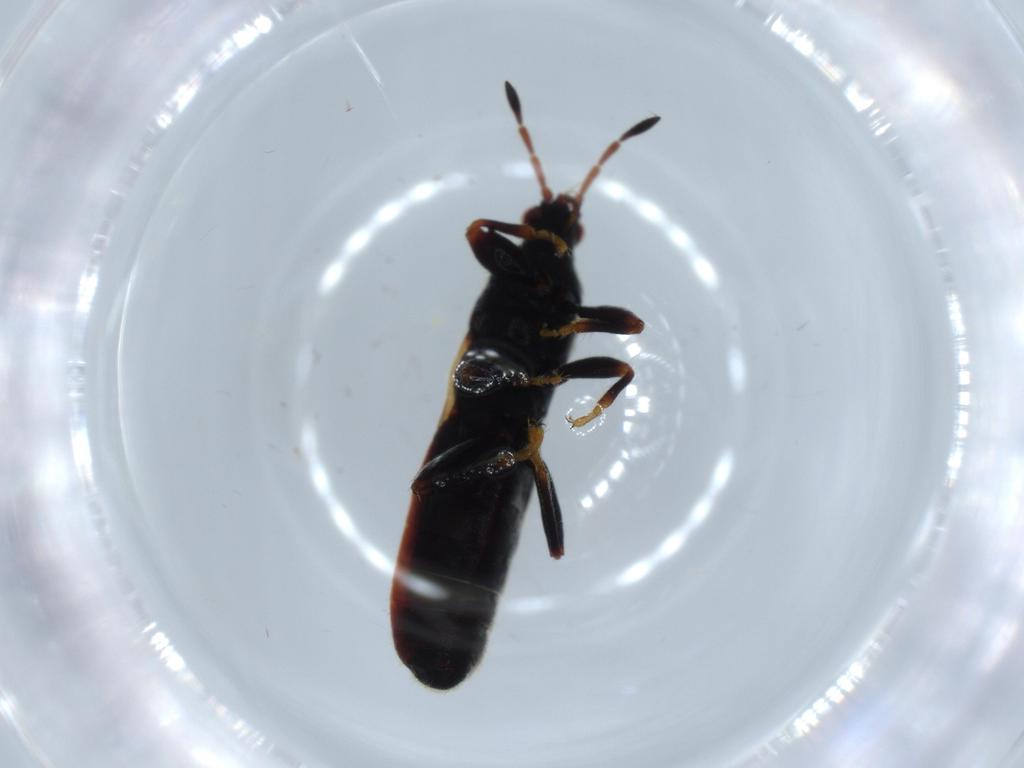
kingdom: Animalia
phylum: Arthropoda
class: Insecta
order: Hemiptera
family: Blissidae
